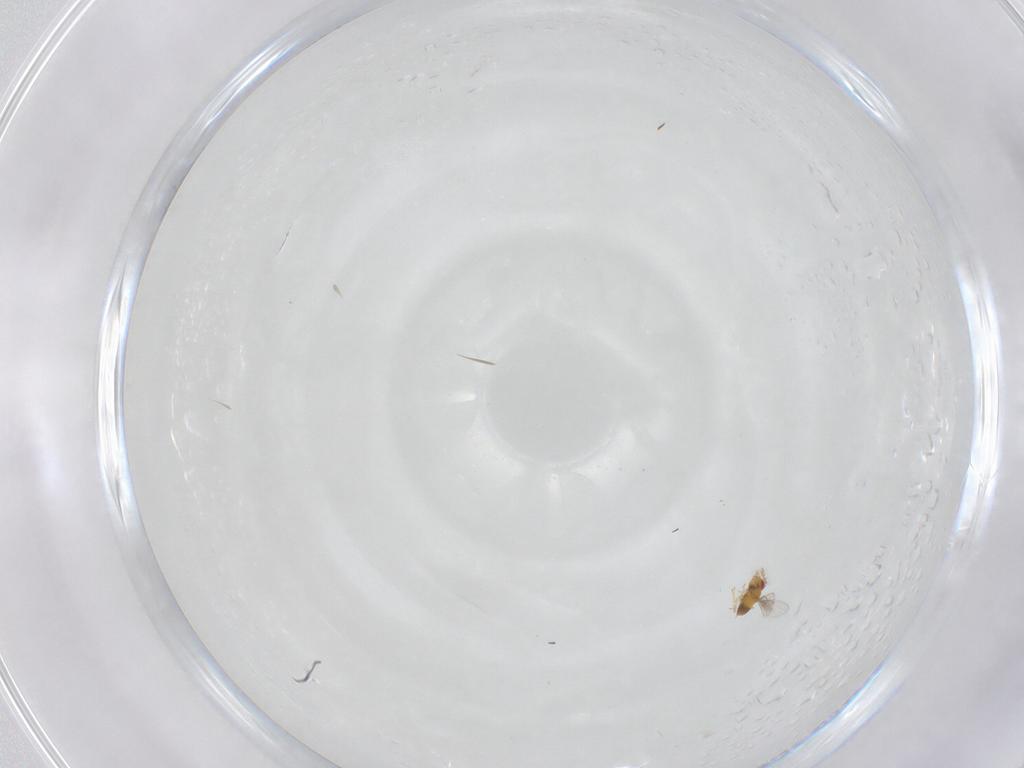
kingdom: Animalia
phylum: Arthropoda
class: Insecta
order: Hymenoptera
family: Trichogrammatidae
